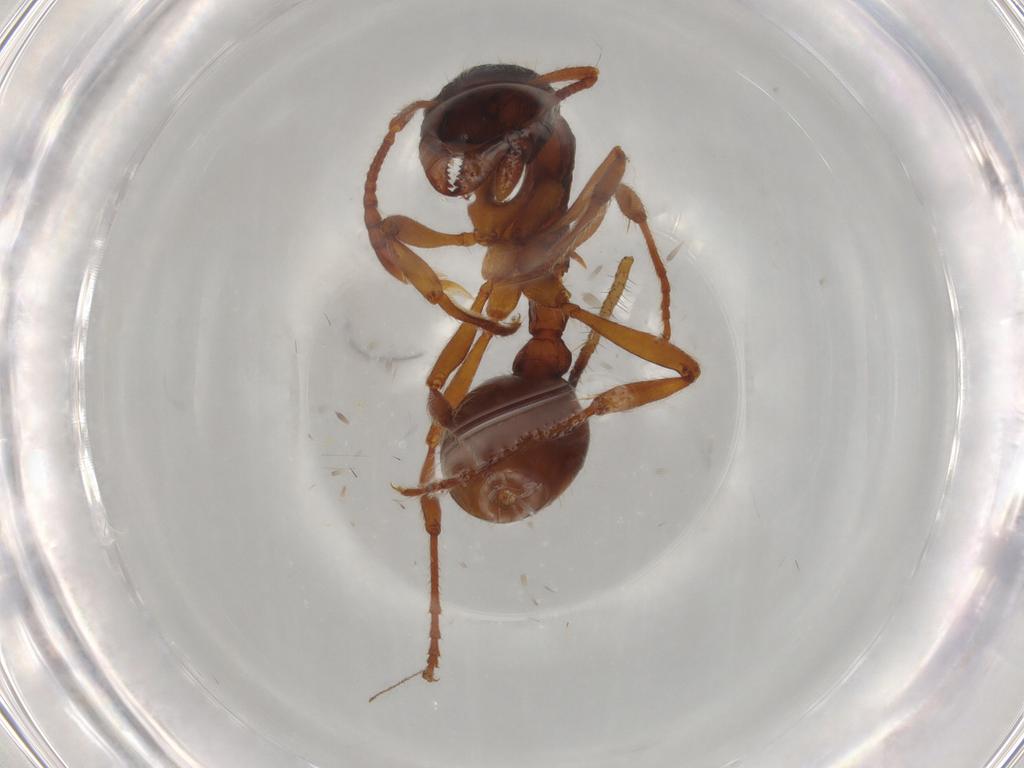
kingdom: Animalia
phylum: Arthropoda
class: Insecta
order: Hymenoptera
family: Formicidae
